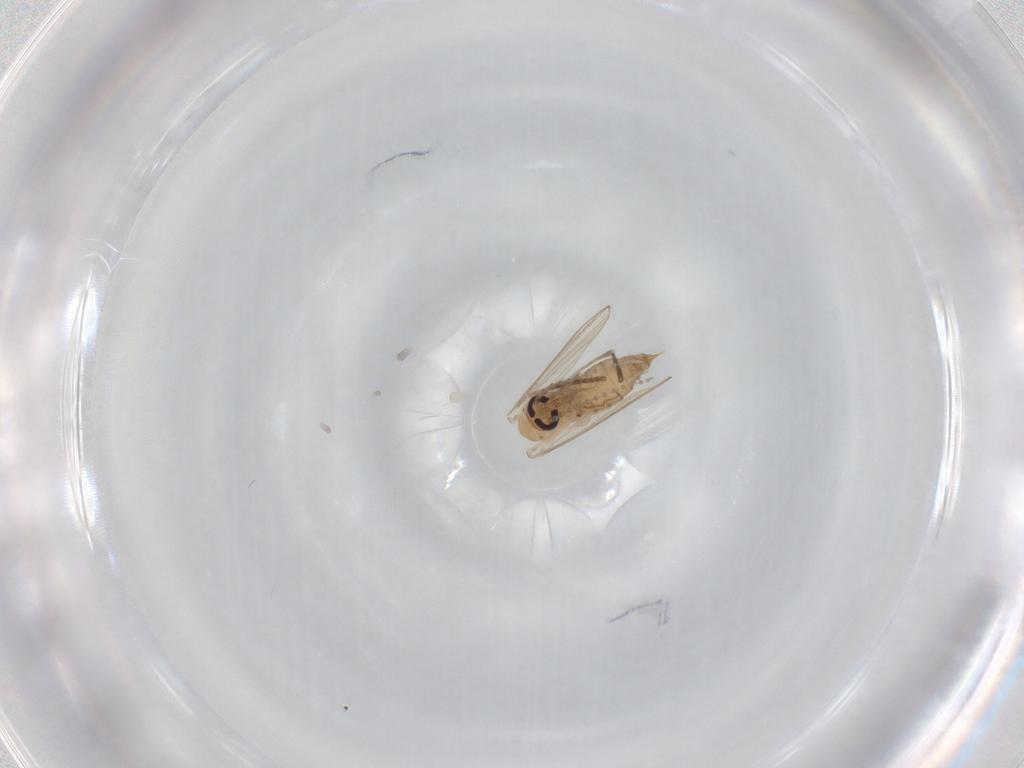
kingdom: Animalia
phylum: Arthropoda
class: Insecta
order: Diptera
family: Psychodidae
